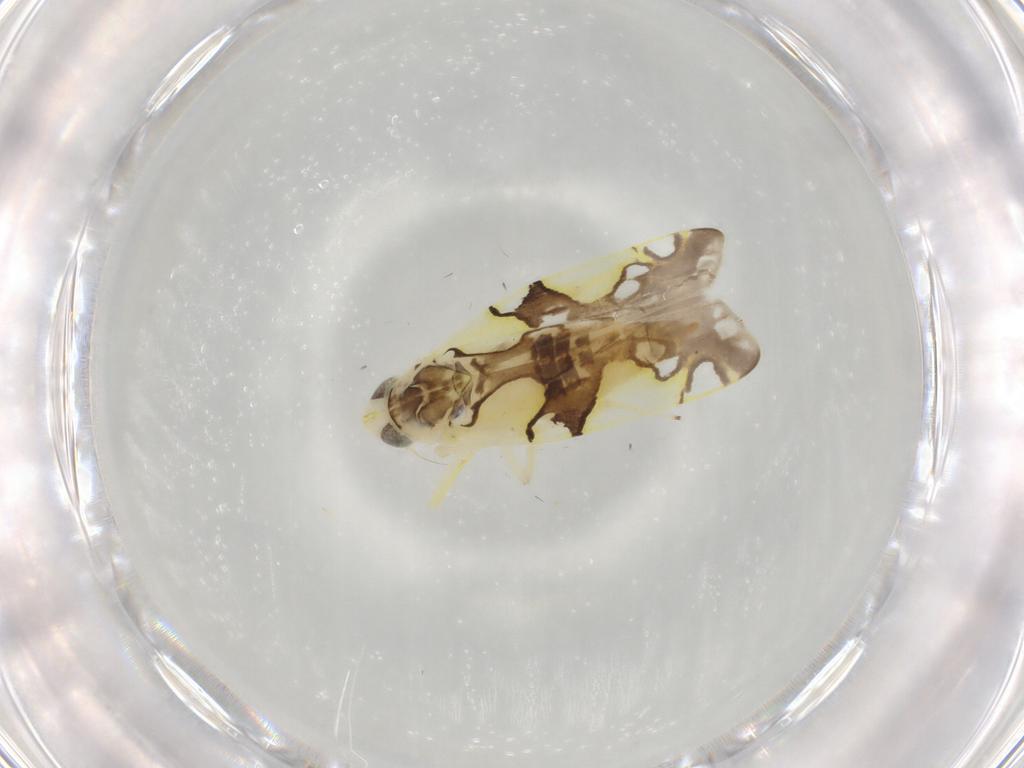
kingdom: Animalia
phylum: Arthropoda
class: Insecta
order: Hemiptera
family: Cicadellidae
